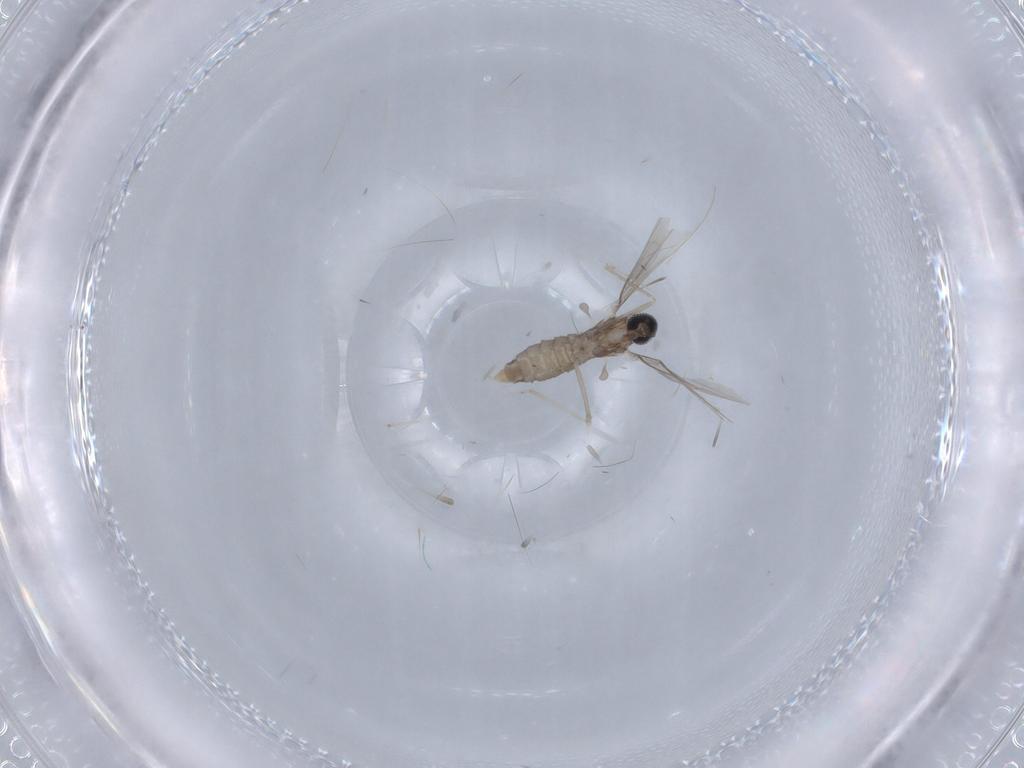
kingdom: Animalia
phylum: Arthropoda
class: Insecta
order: Diptera
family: Cecidomyiidae
